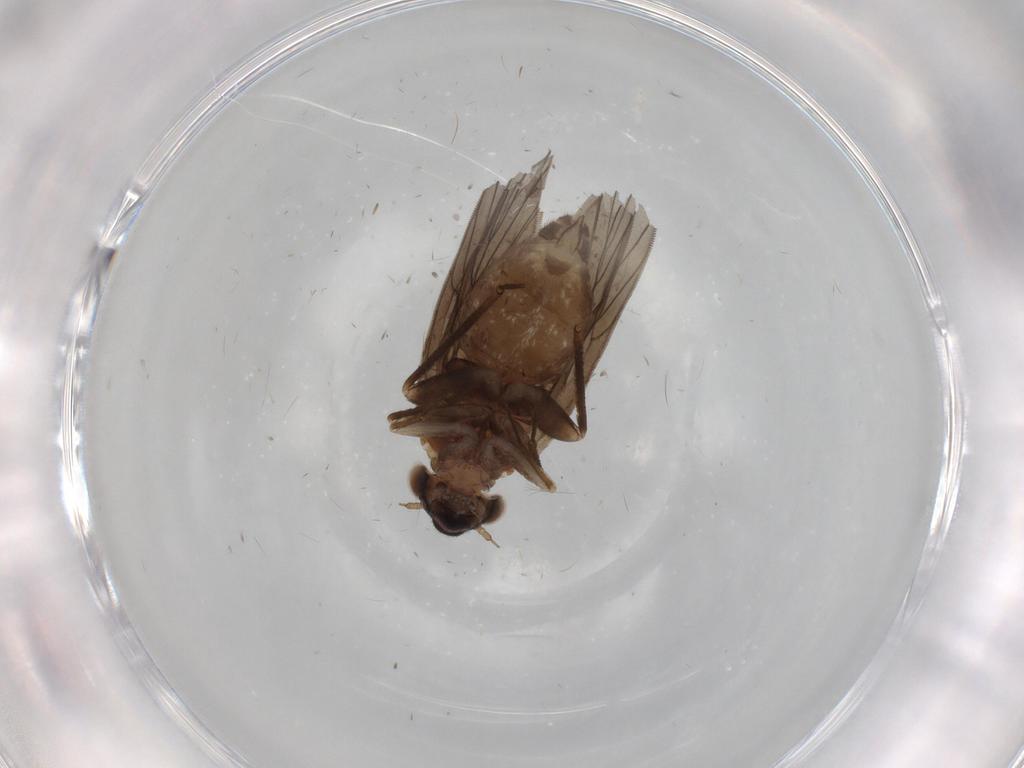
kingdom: Animalia
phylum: Arthropoda
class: Insecta
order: Psocodea
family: Lepidopsocidae
